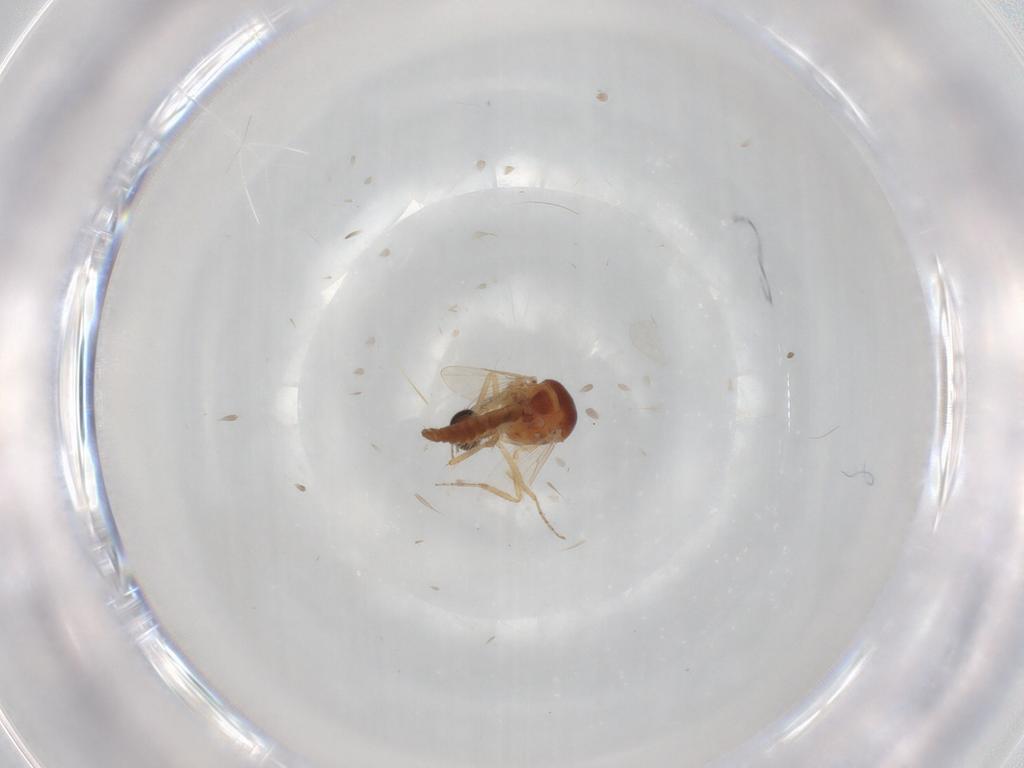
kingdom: Animalia
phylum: Arthropoda
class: Insecta
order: Diptera
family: Ceratopogonidae
